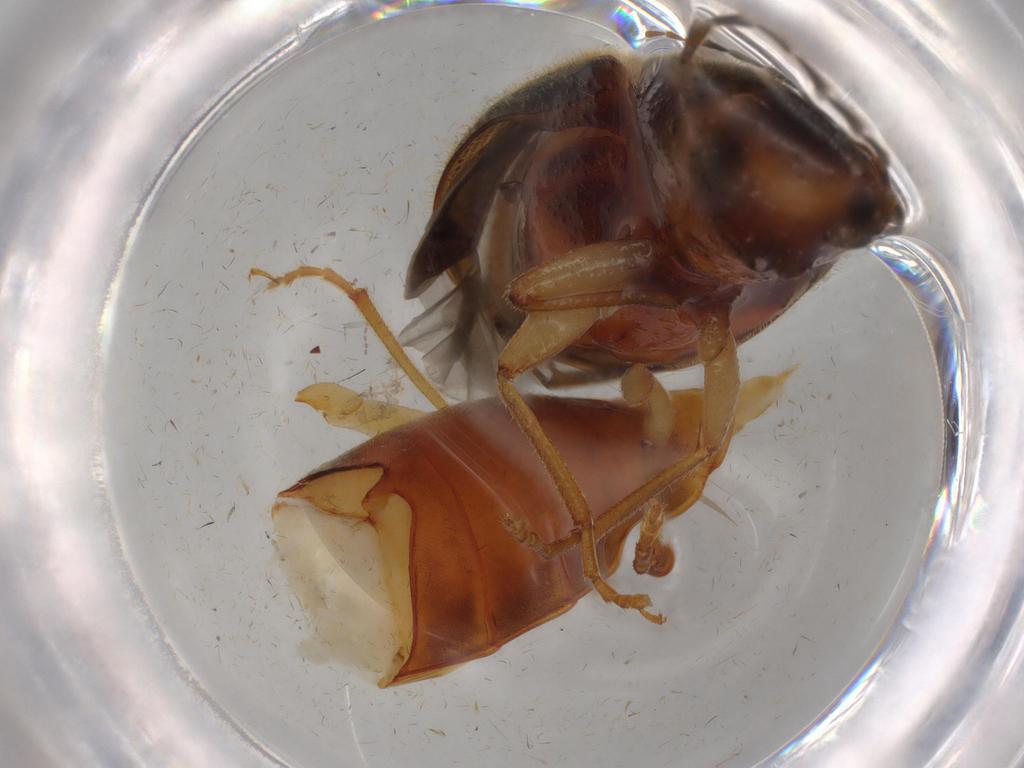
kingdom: Animalia
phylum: Arthropoda
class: Insecta
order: Coleoptera
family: Elateridae
